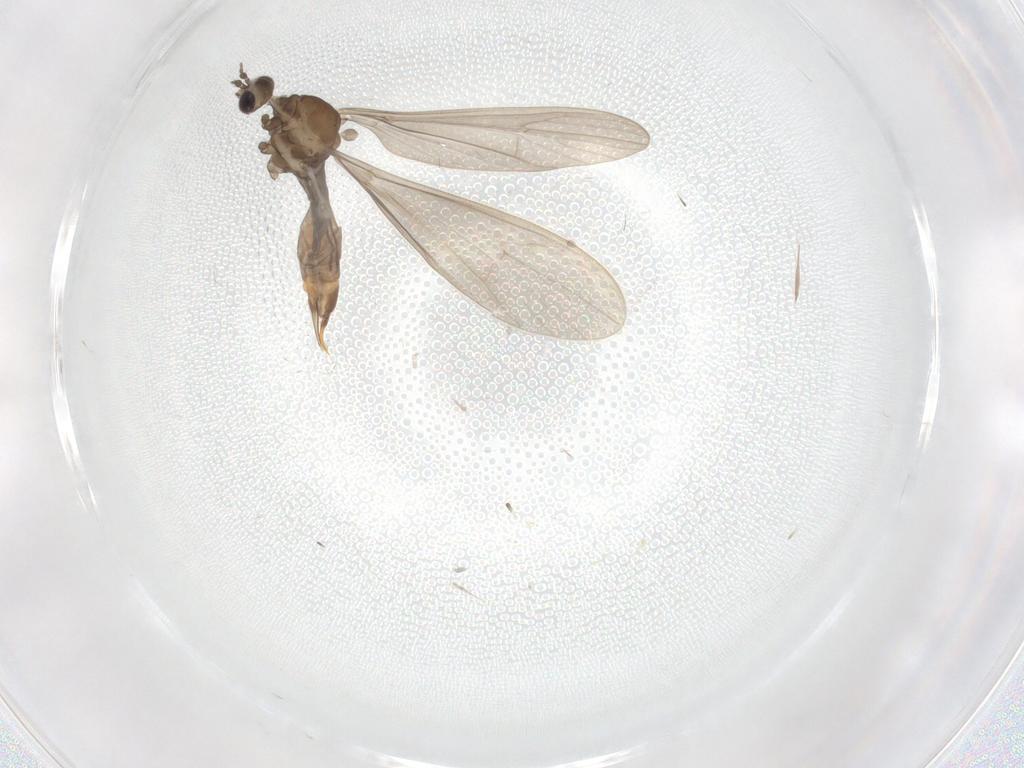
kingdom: Animalia
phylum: Arthropoda
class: Insecta
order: Diptera
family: Limoniidae
